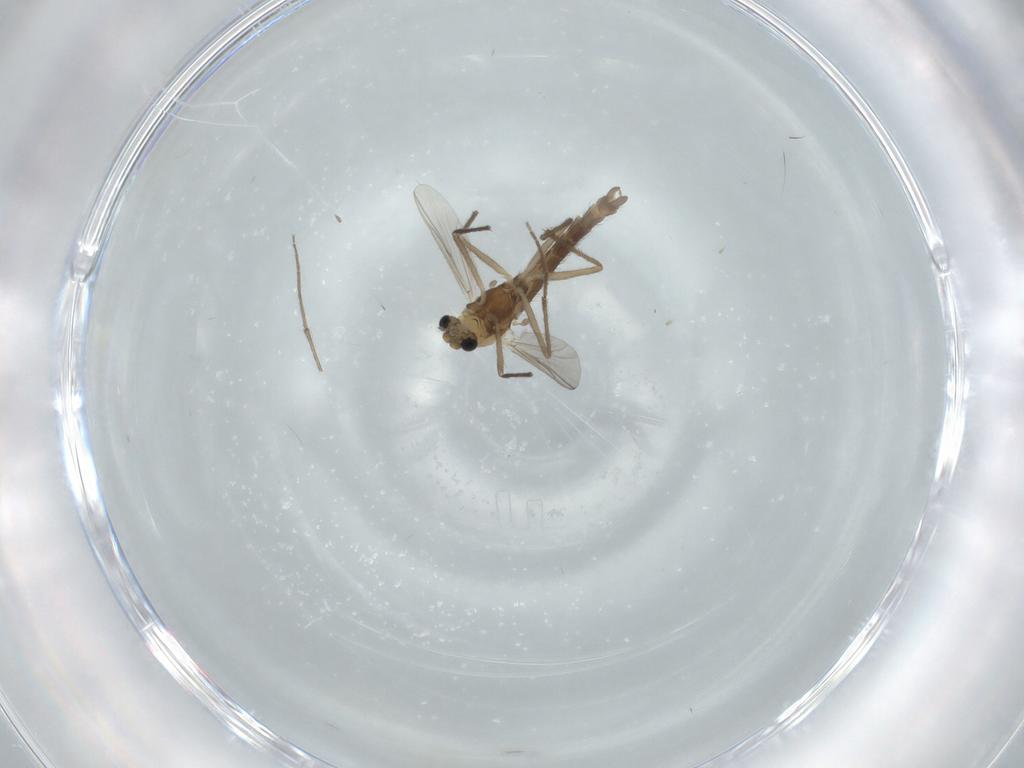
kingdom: Animalia
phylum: Arthropoda
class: Insecta
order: Diptera
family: Chironomidae
